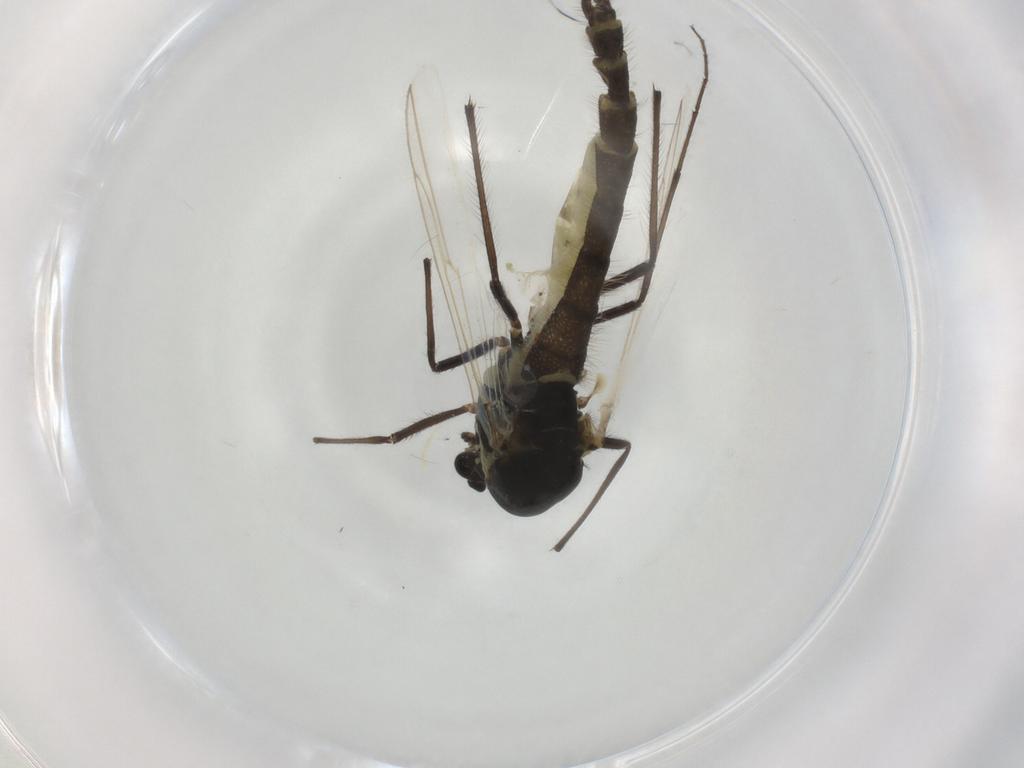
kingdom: Animalia
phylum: Arthropoda
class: Insecta
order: Diptera
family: Chironomidae
